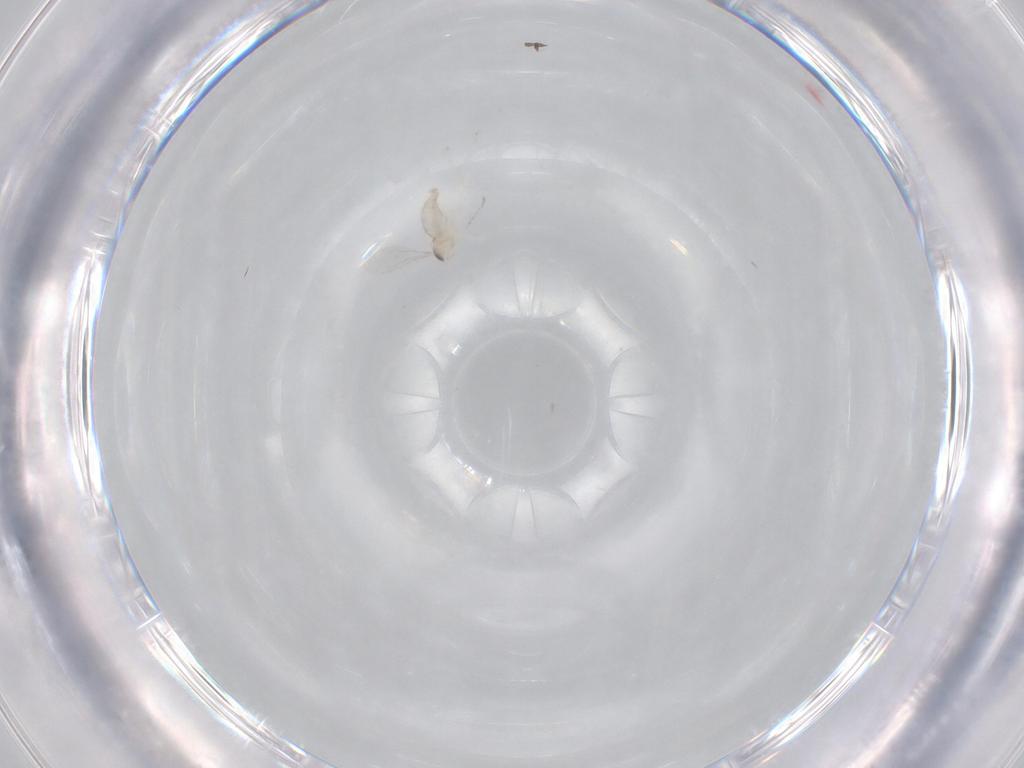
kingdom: Animalia
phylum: Arthropoda
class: Insecta
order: Diptera
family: Cecidomyiidae
